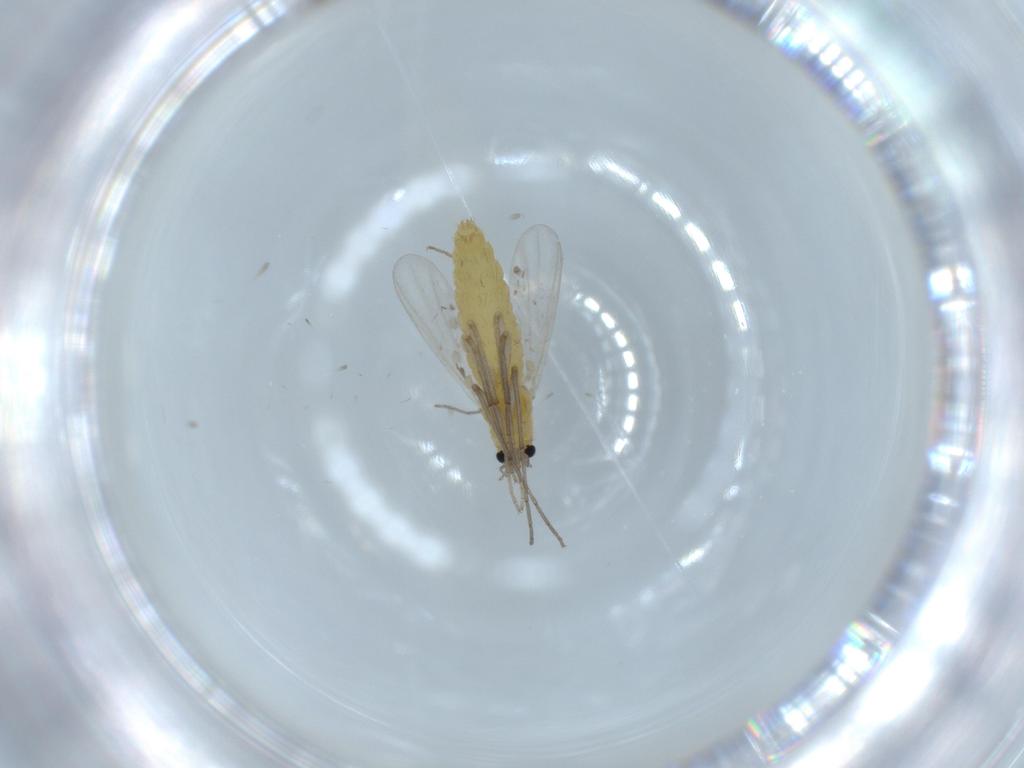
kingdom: Animalia
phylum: Arthropoda
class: Insecta
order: Diptera
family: Chironomidae
